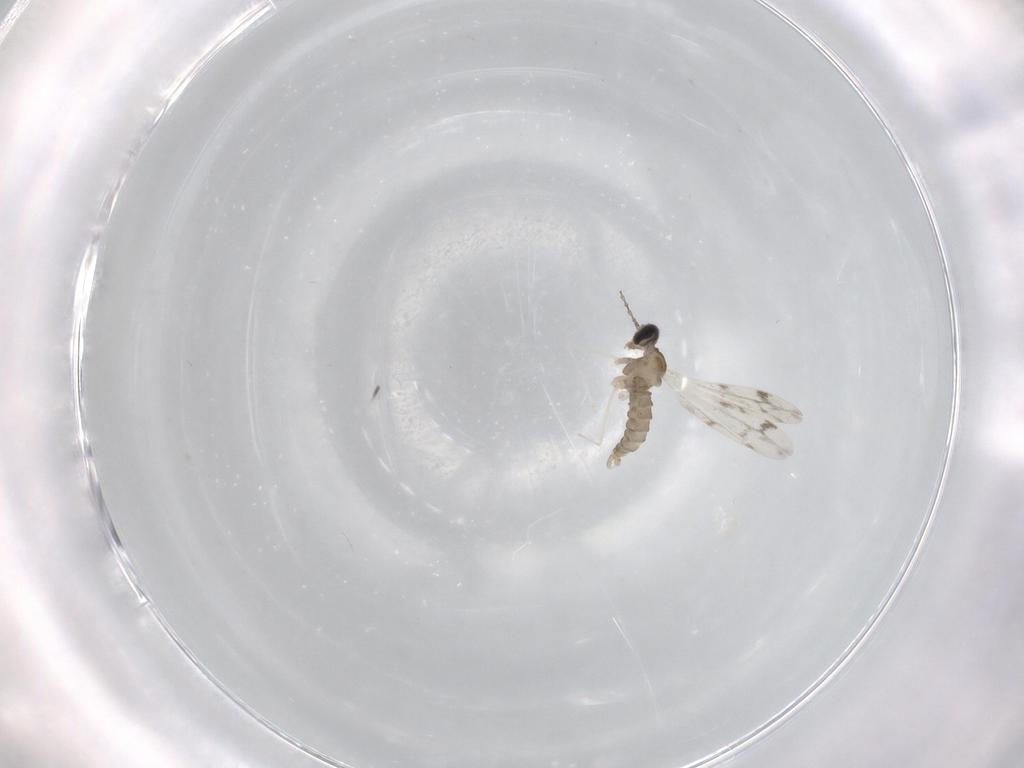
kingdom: Animalia
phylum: Arthropoda
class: Insecta
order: Diptera
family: Cecidomyiidae
